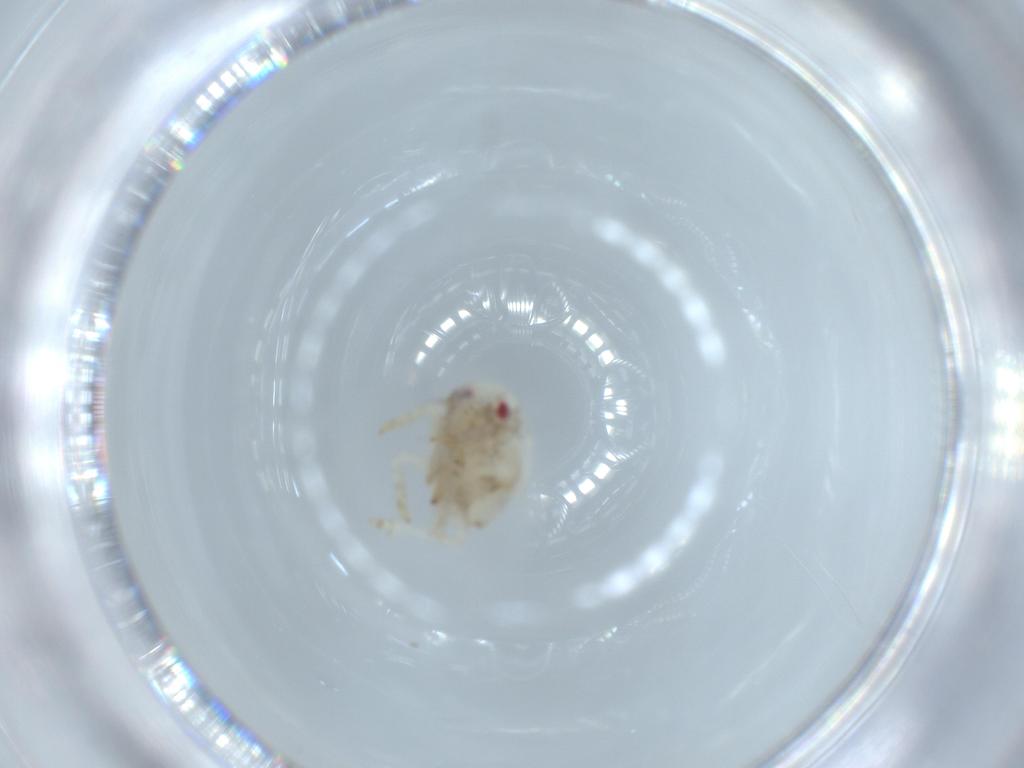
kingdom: Animalia
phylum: Arthropoda
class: Insecta
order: Hemiptera
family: Acanaloniidae
